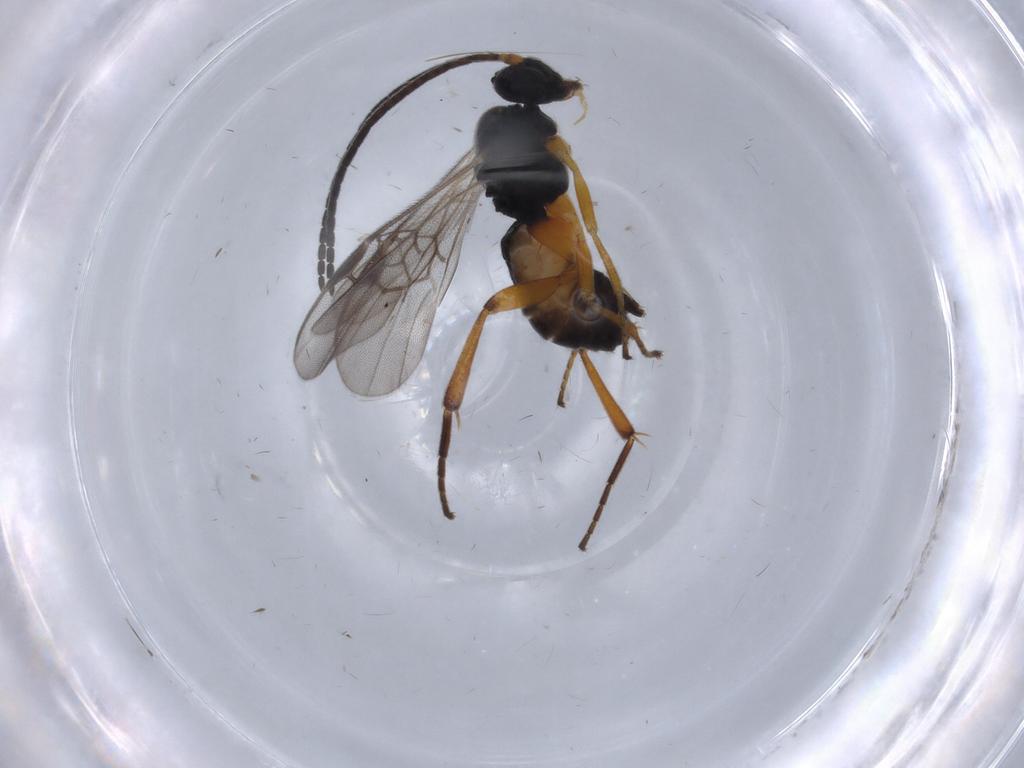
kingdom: Animalia
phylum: Arthropoda
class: Insecta
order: Hymenoptera
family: Braconidae
